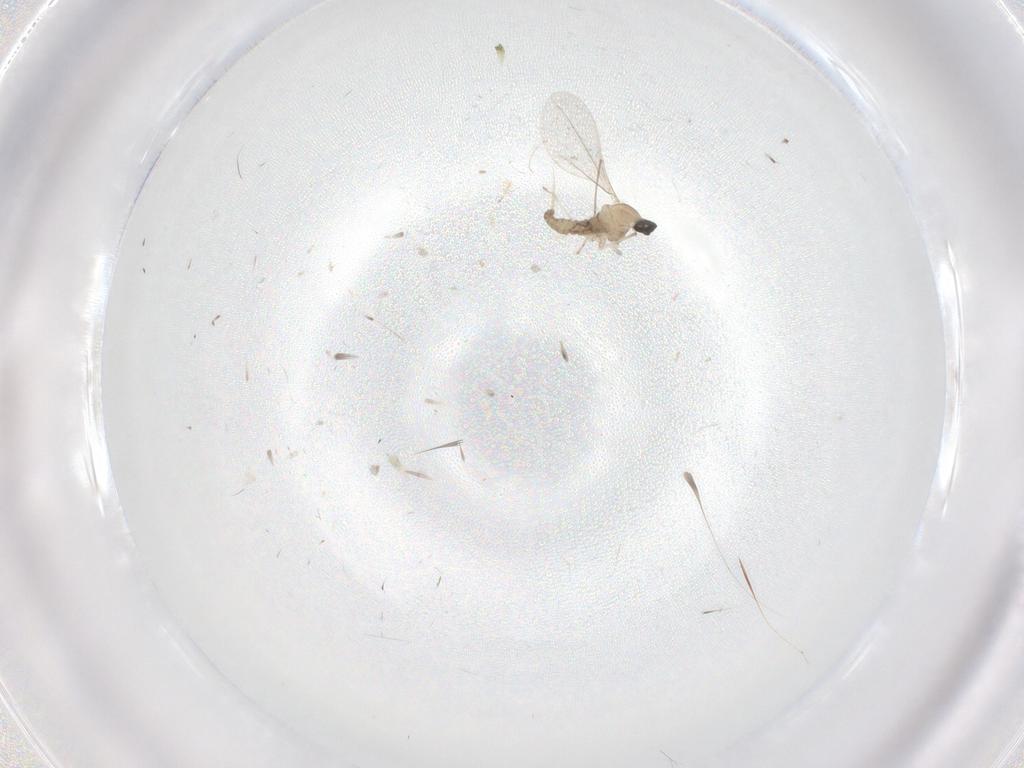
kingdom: Animalia
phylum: Arthropoda
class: Insecta
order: Diptera
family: Cecidomyiidae
